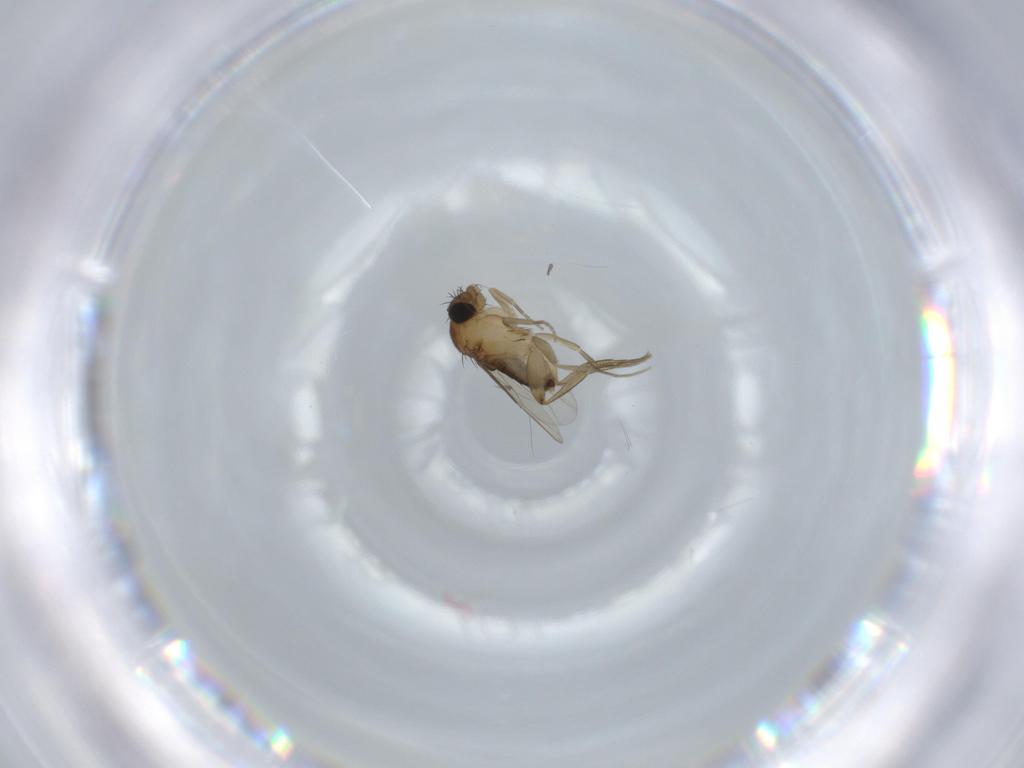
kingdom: Animalia
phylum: Arthropoda
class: Insecta
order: Diptera
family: Phoridae
